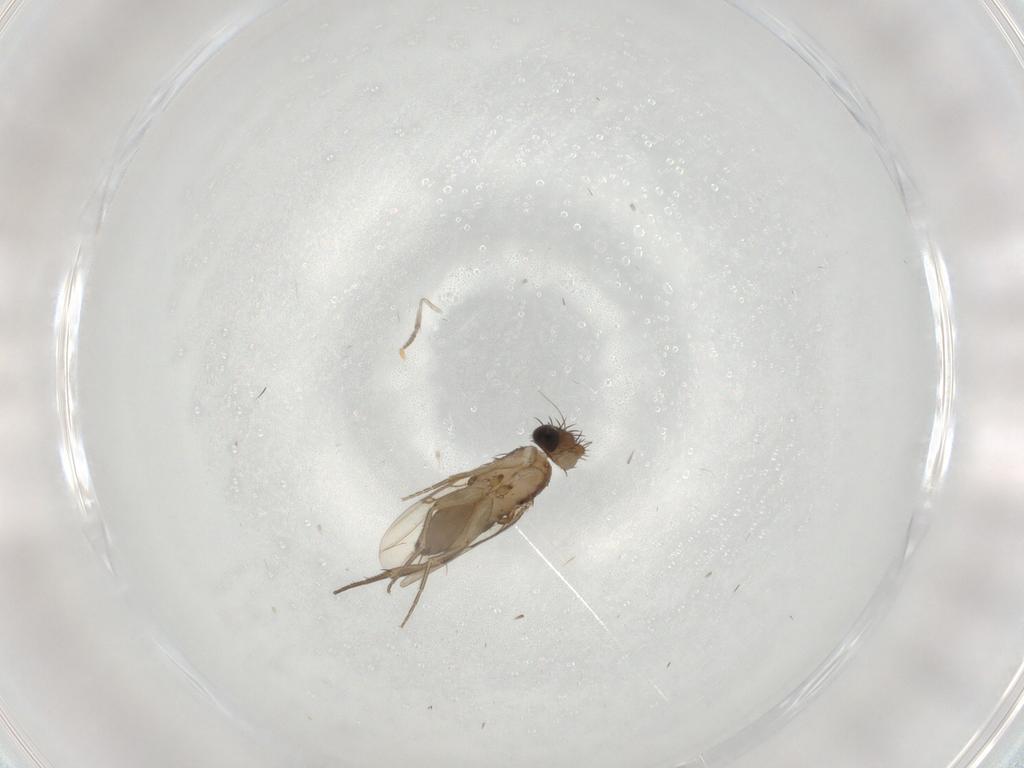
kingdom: Animalia
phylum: Arthropoda
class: Insecta
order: Diptera
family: Phoridae
